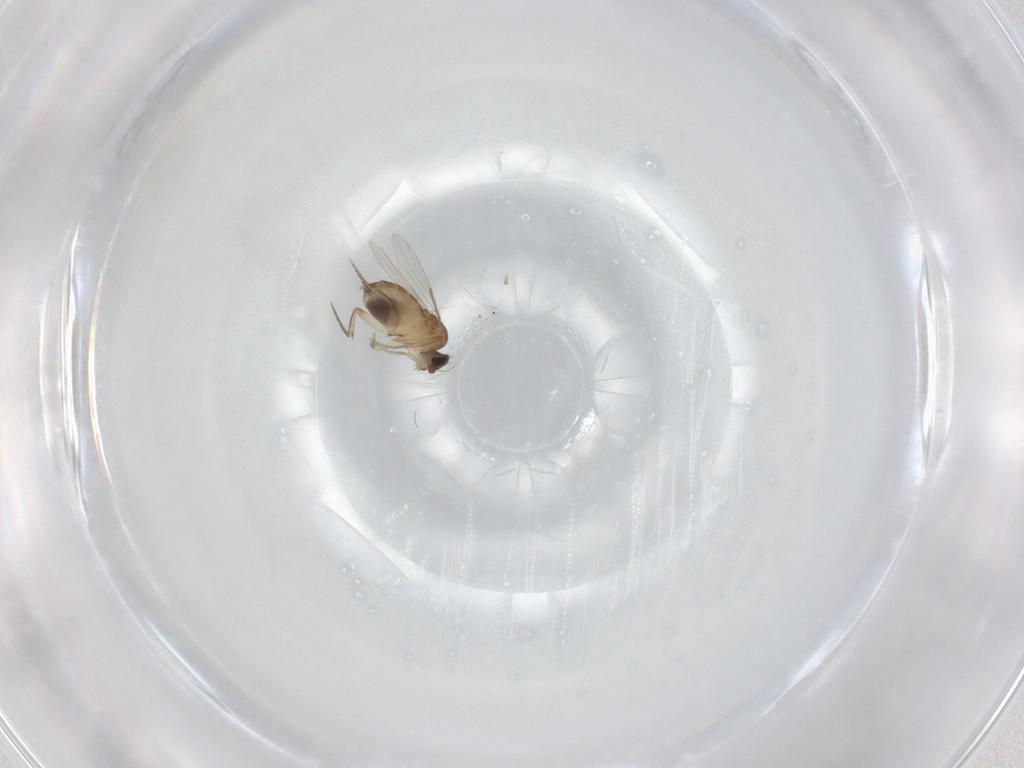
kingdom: Animalia
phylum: Arthropoda
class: Insecta
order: Diptera
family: Phoridae
